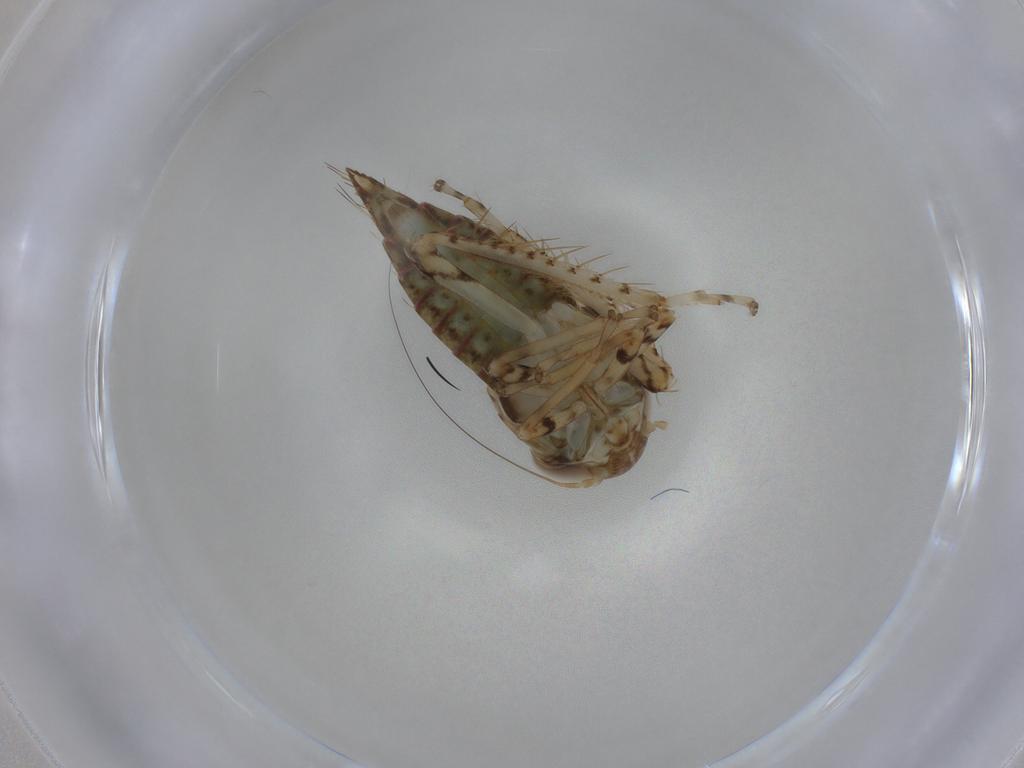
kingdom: Animalia
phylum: Arthropoda
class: Insecta
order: Hemiptera
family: Cicadellidae
